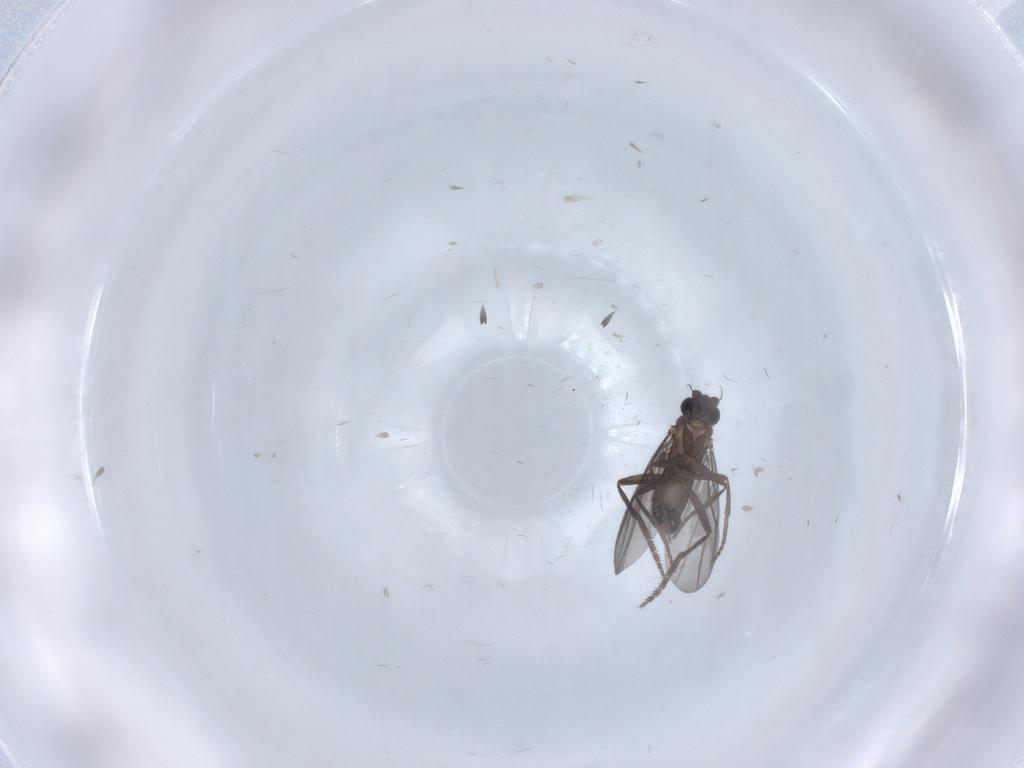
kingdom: Animalia
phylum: Arthropoda
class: Insecta
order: Diptera
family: Phoridae
